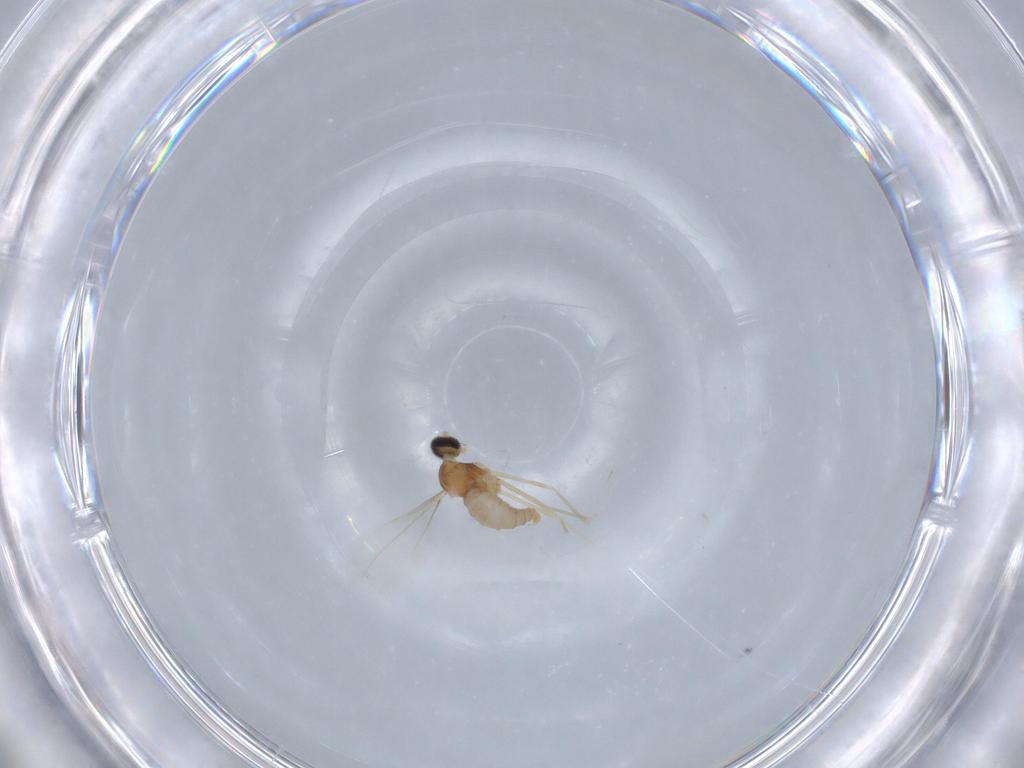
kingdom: Animalia
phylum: Arthropoda
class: Insecta
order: Diptera
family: Cecidomyiidae
